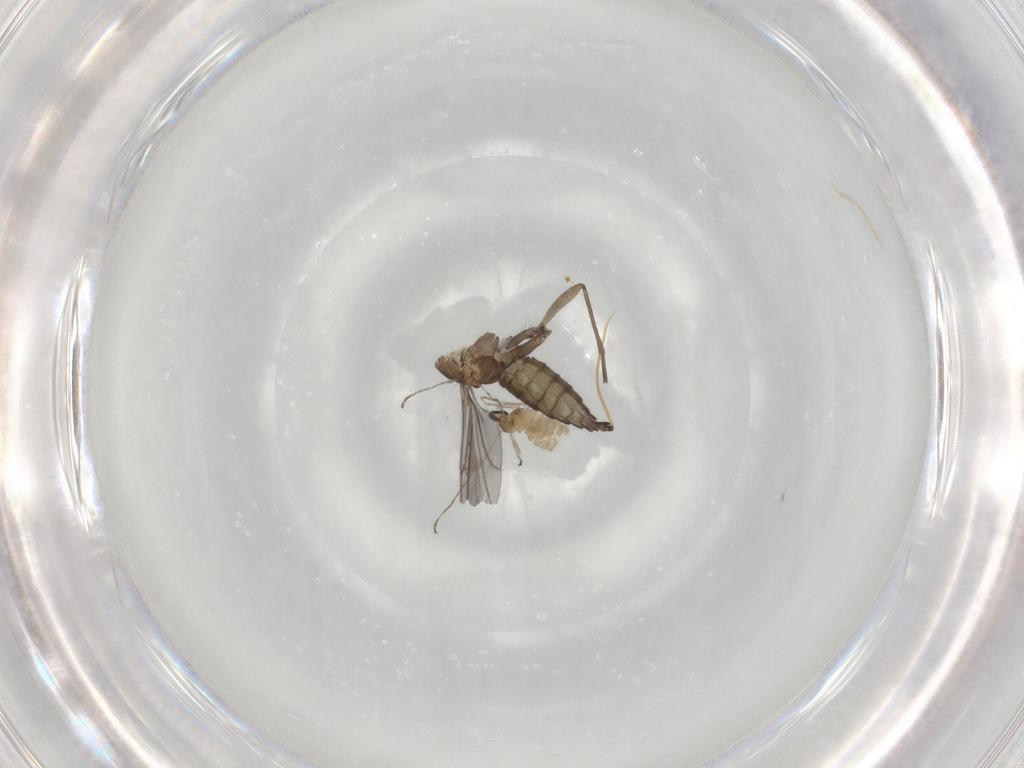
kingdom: Animalia
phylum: Arthropoda
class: Insecta
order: Diptera
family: Sciaridae
